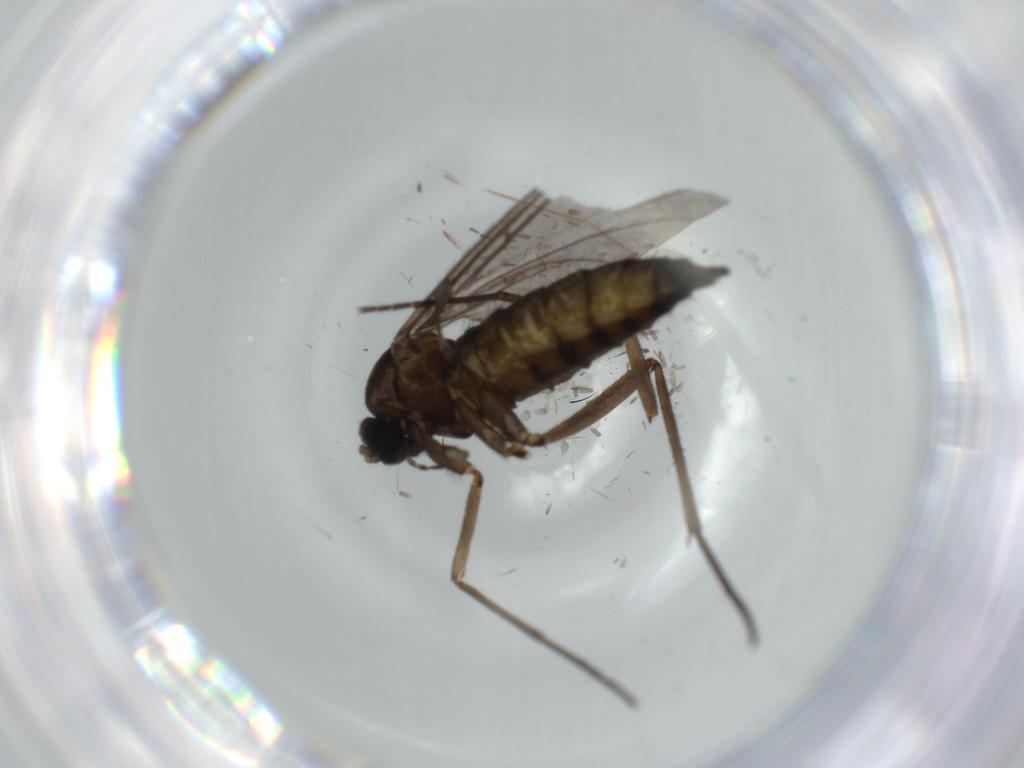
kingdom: Animalia
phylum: Arthropoda
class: Insecta
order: Diptera
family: Sciaridae
